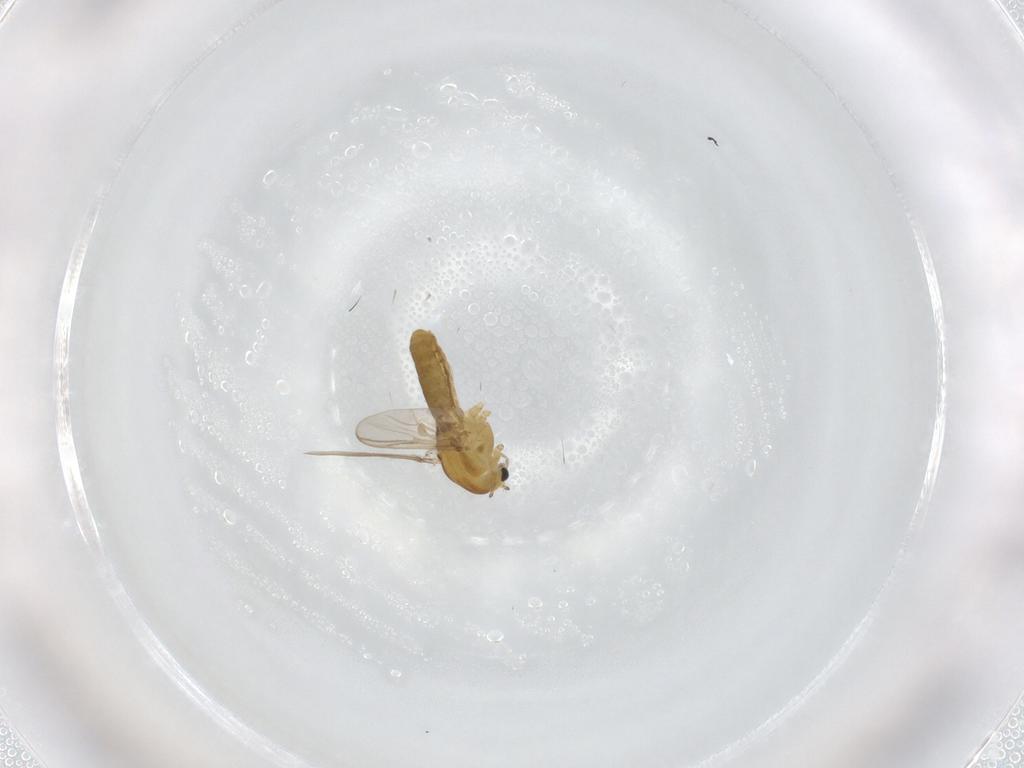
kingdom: Animalia
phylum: Arthropoda
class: Insecta
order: Diptera
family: Chironomidae
